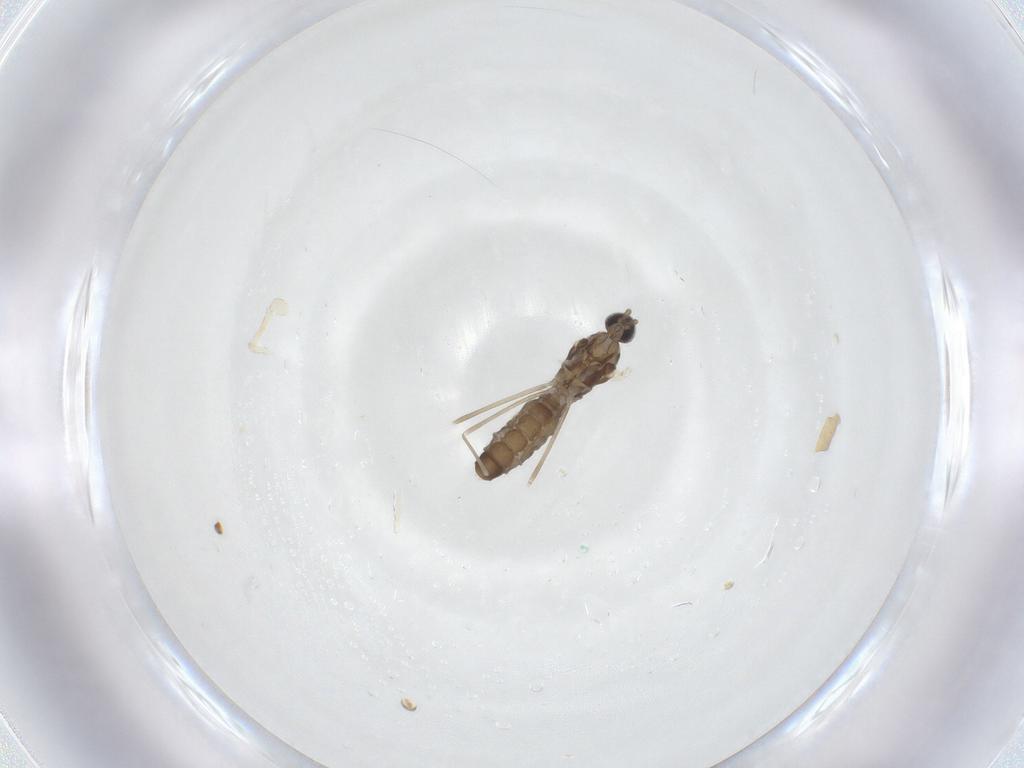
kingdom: Animalia
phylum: Arthropoda
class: Insecta
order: Diptera
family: Cecidomyiidae
